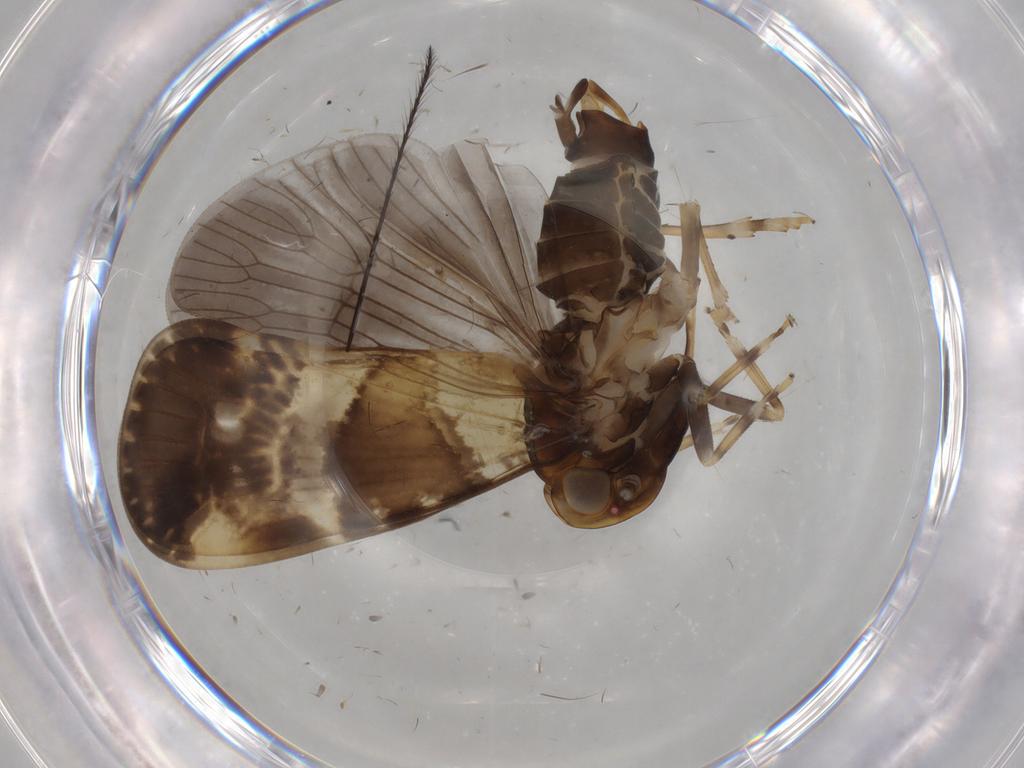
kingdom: Animalia
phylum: Arthropoda
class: Insecta
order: Hemiptera
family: Cixiidae
